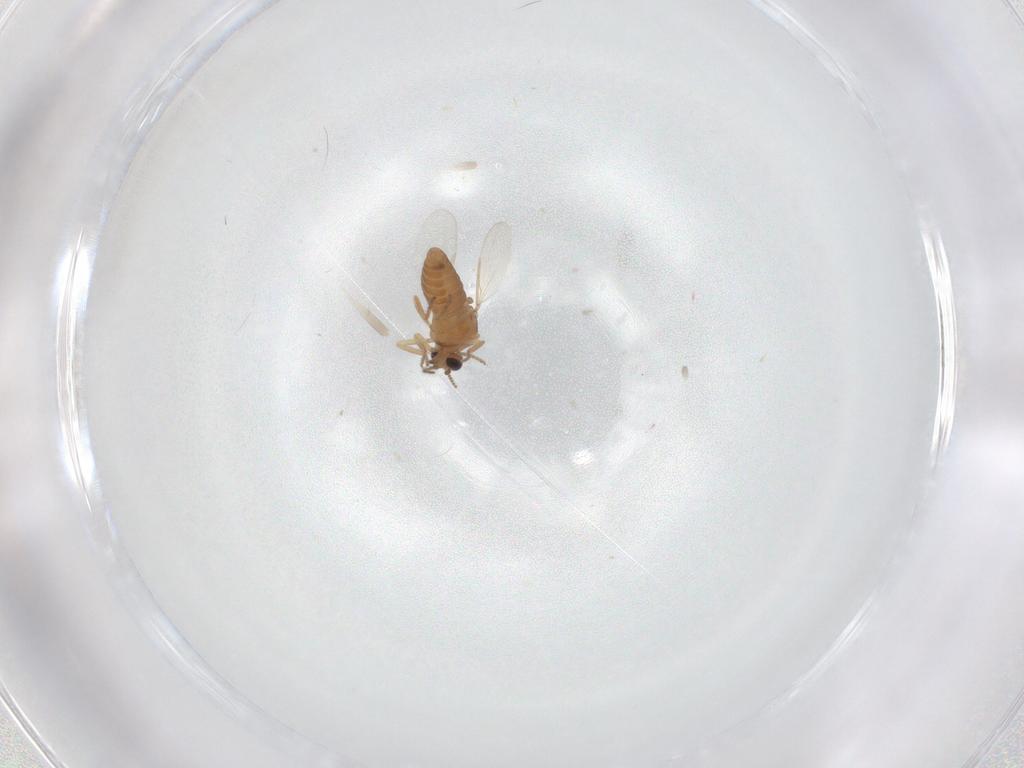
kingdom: Animalia
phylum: Arthropoda
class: Insecta
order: Diptera
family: Ceratopogonidae
